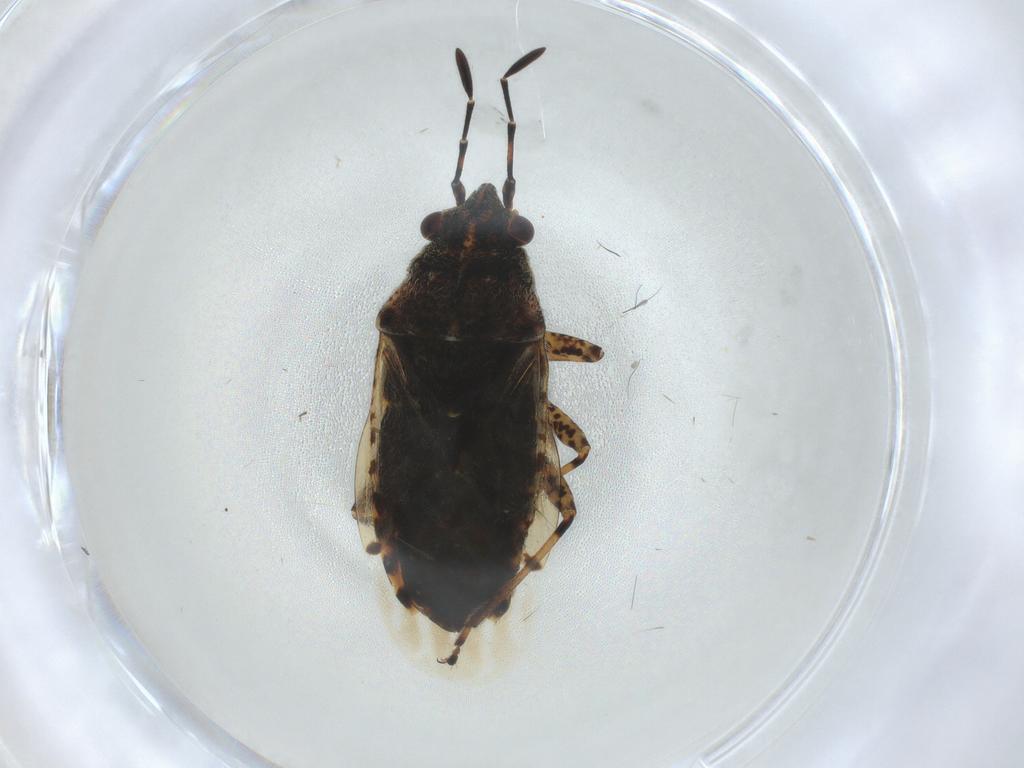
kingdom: Animalia
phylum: Arthropoda
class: Insecta
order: Hemiptera
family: Lygaeidae
